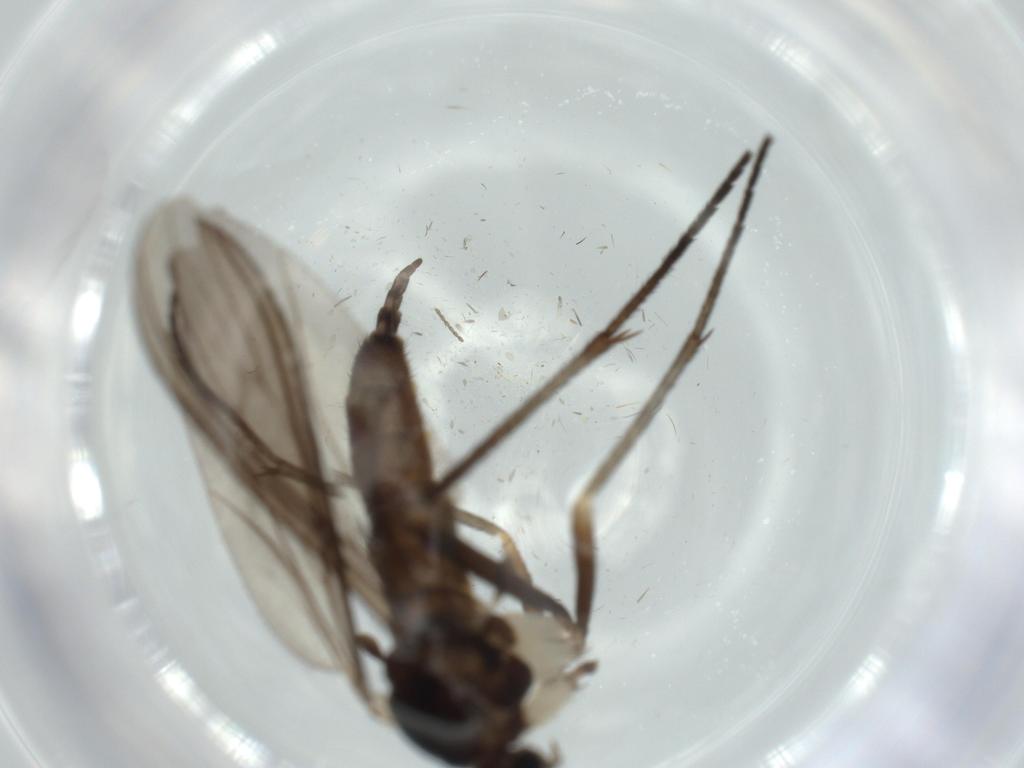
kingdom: Animalia
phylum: Arthropoda
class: Insecta
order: Diptera
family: Sciaridae
